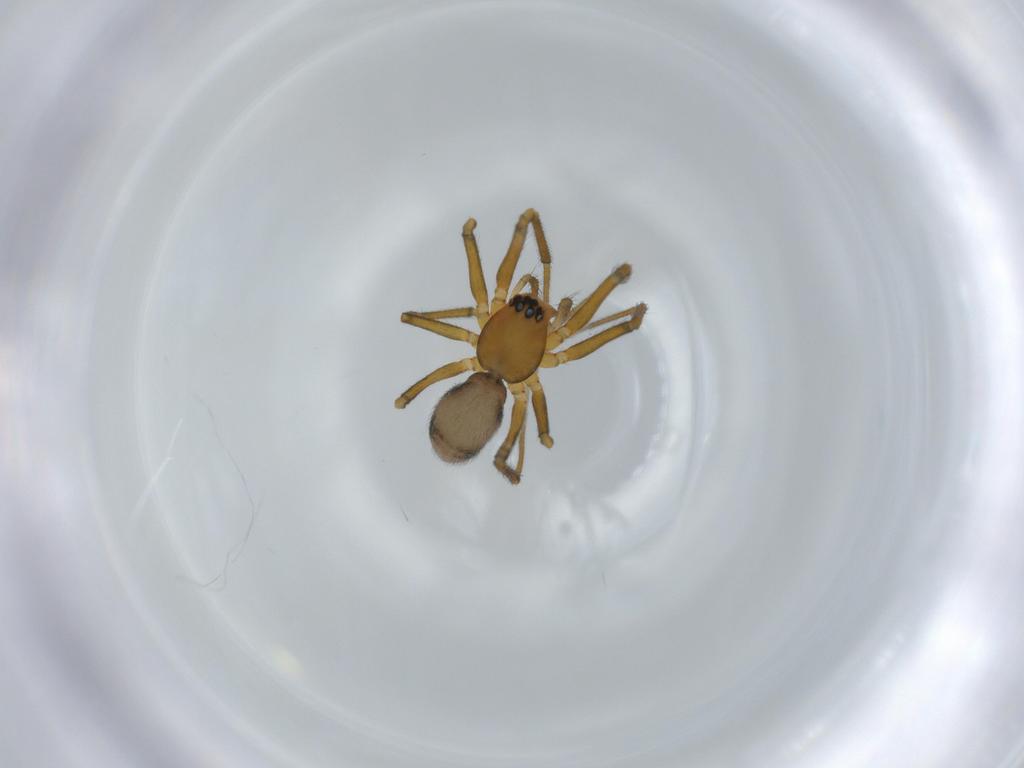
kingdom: Animalia
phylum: Arthropoda
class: Arachnida
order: Araneae
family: Linyphiidae
